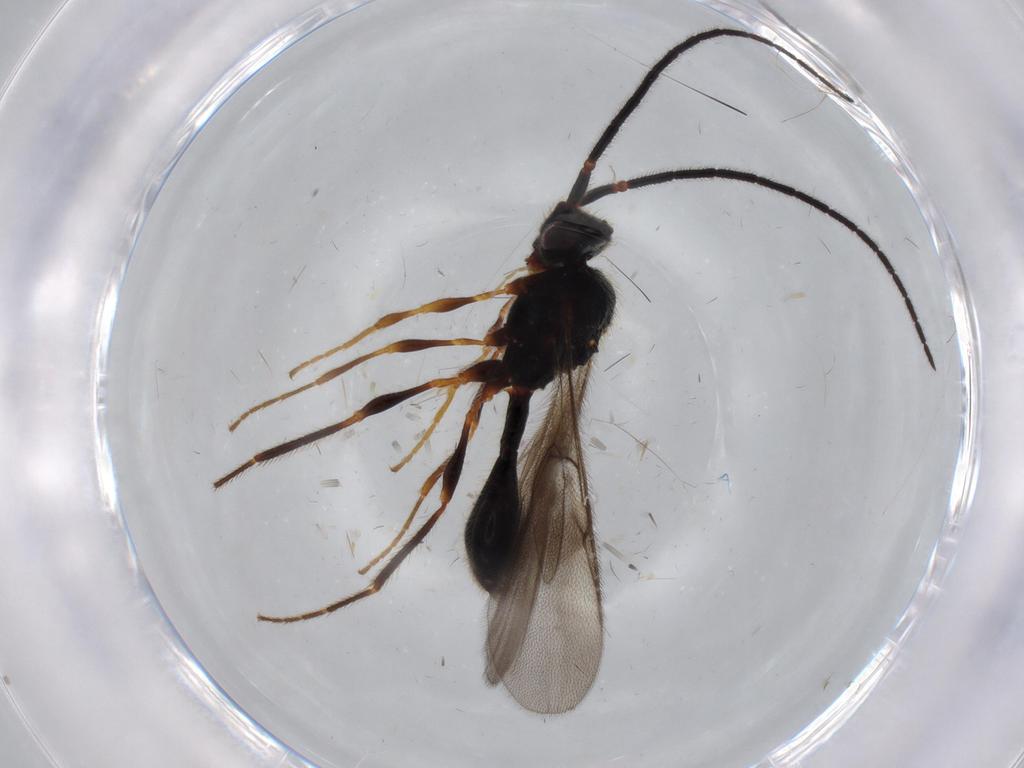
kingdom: Animalia
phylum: Arthropoda
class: Insecta
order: Hymenoptera
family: Diapriidae
